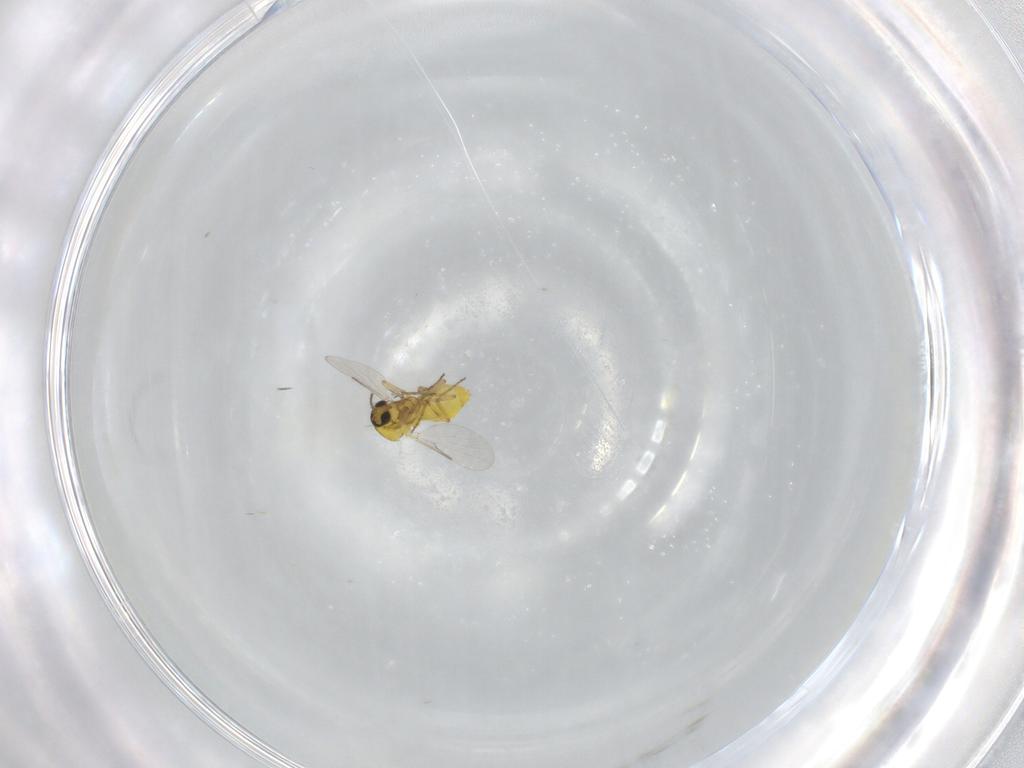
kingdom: Animalia
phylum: Arthropoda
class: Insecta
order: Diptera
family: Ceratopogonidae
